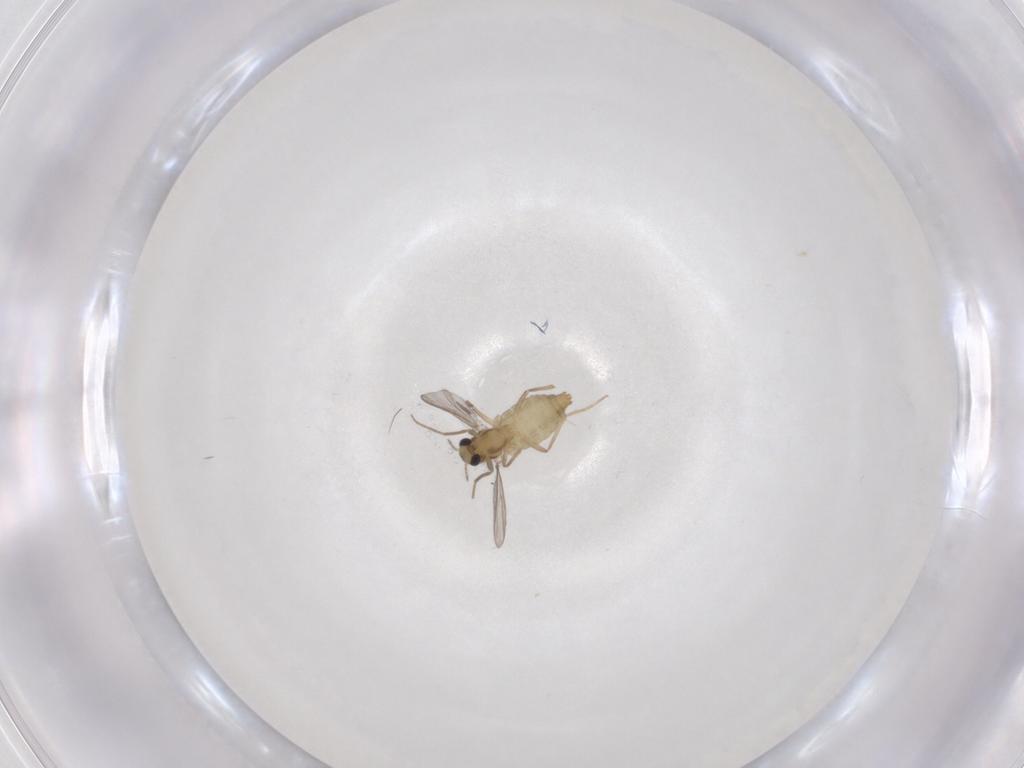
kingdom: Animalia
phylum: Arthropoda
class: Insecta
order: Diptera
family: Chironomidae
